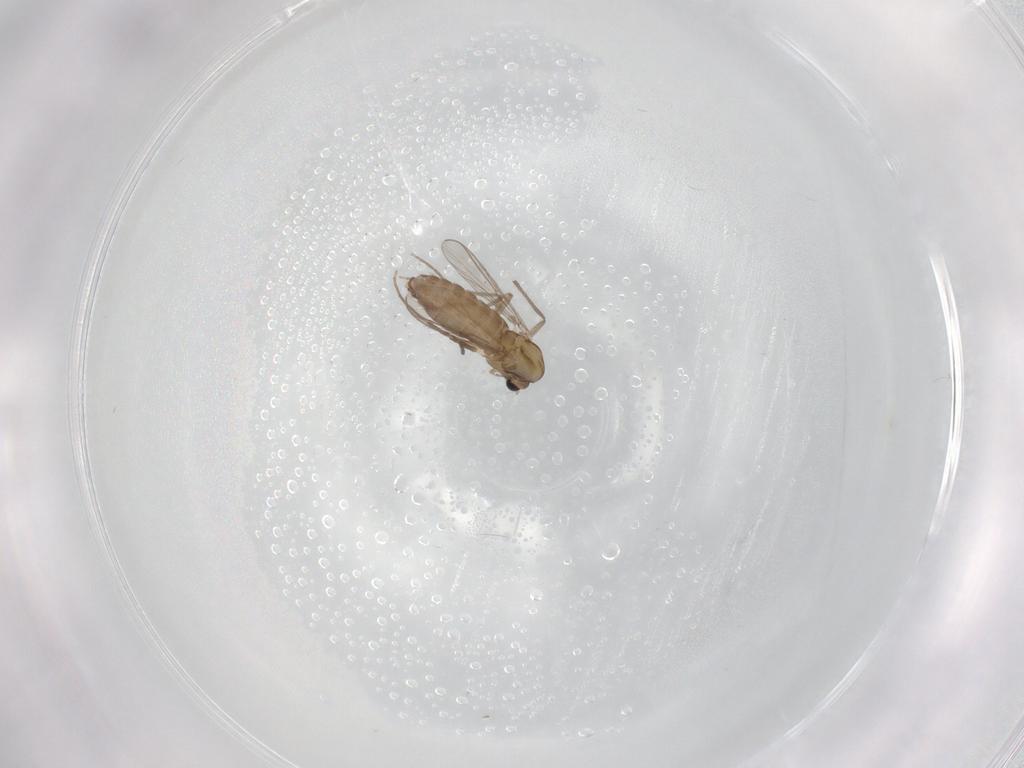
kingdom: Animalia
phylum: Arthropoda
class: Insecta
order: Diptera
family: Chironomidae
